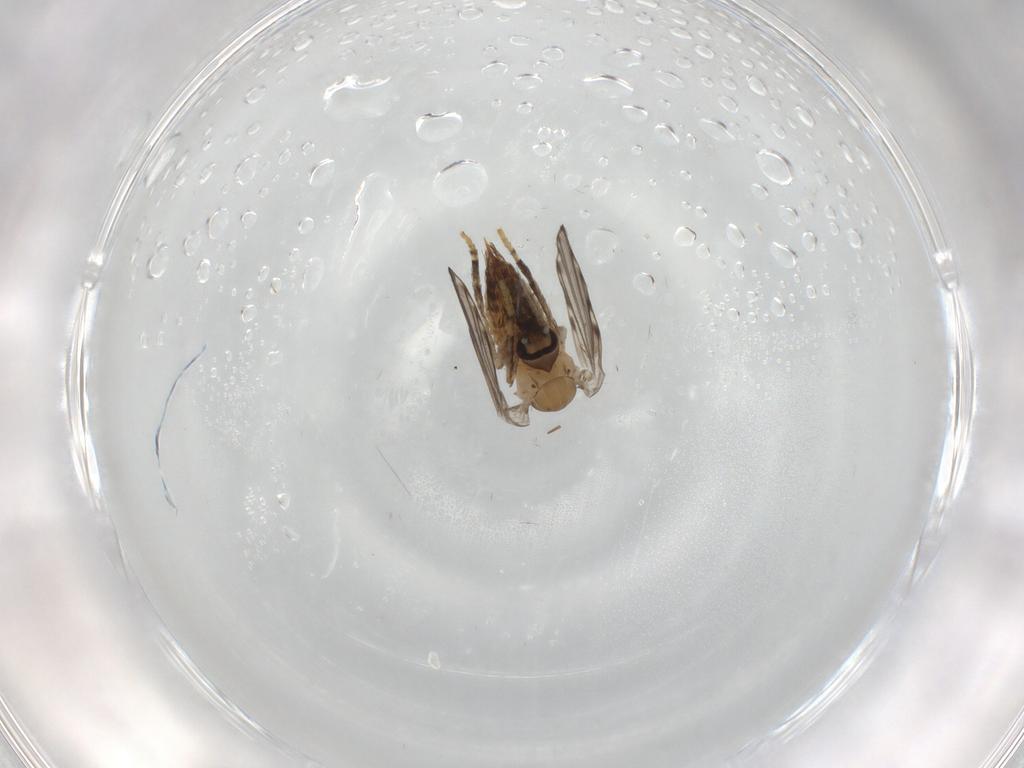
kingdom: Animalia
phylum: Arthropoda
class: Insecta
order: Diptera
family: Psychodidae
